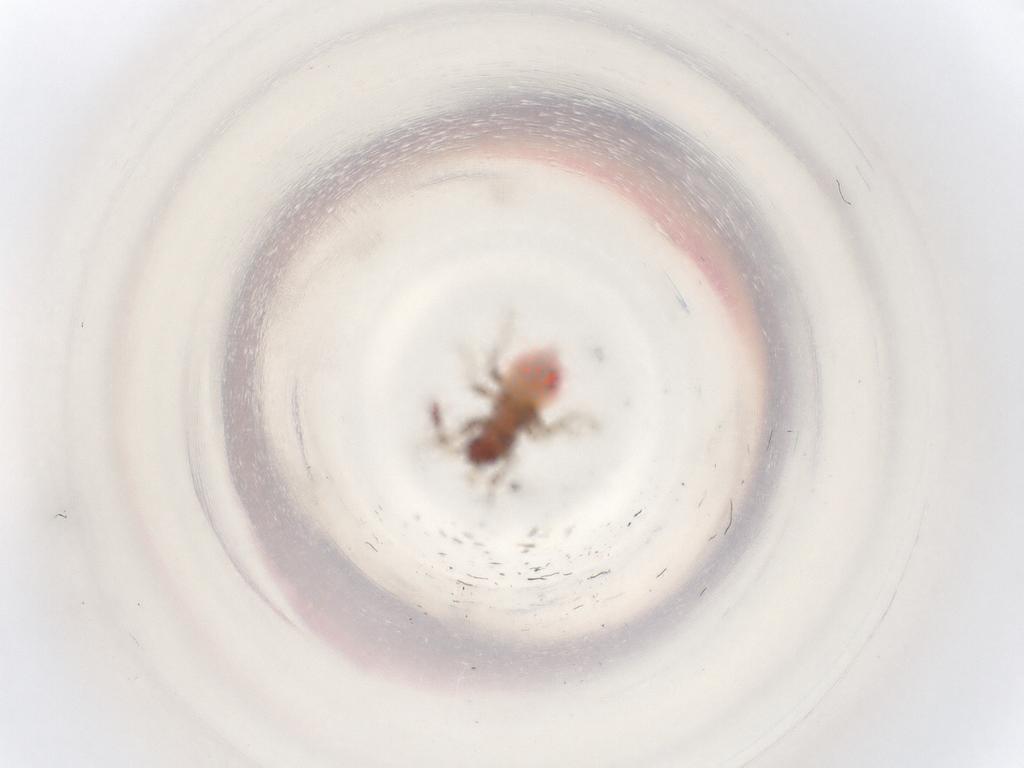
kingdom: Animalia
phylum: Arthropoda
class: Insecta
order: Hemiptera
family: Rhyparochromidae
